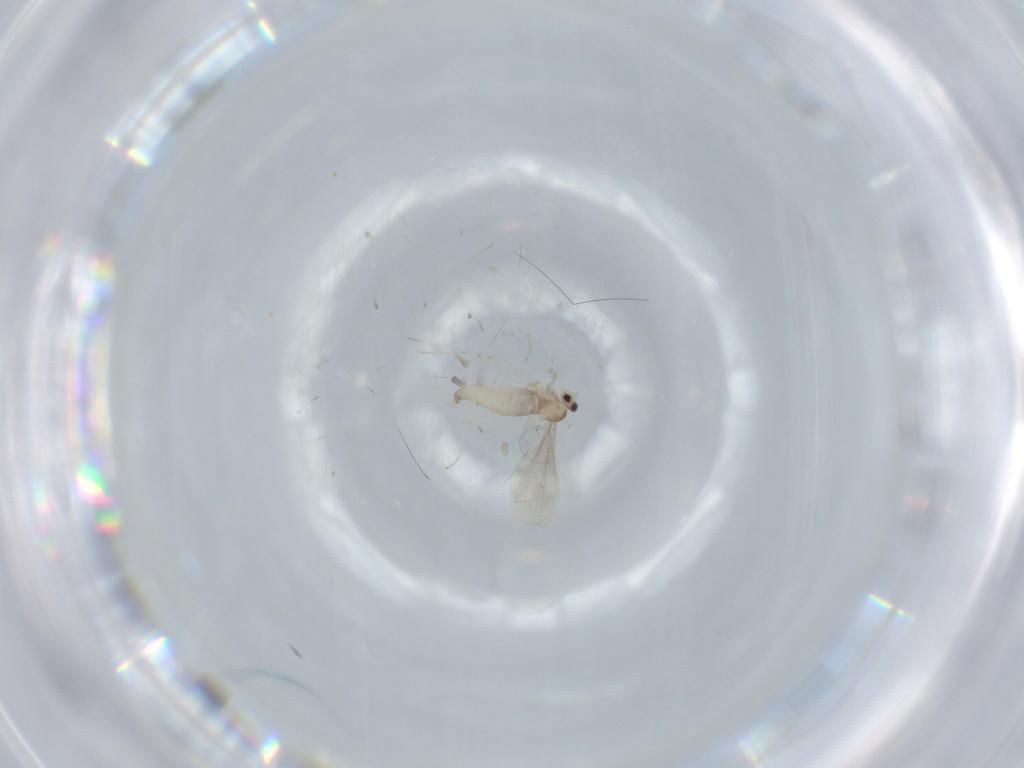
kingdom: Animalia
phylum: Arthropoda
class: Insecta
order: Diptera
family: Cecidomyiidae
